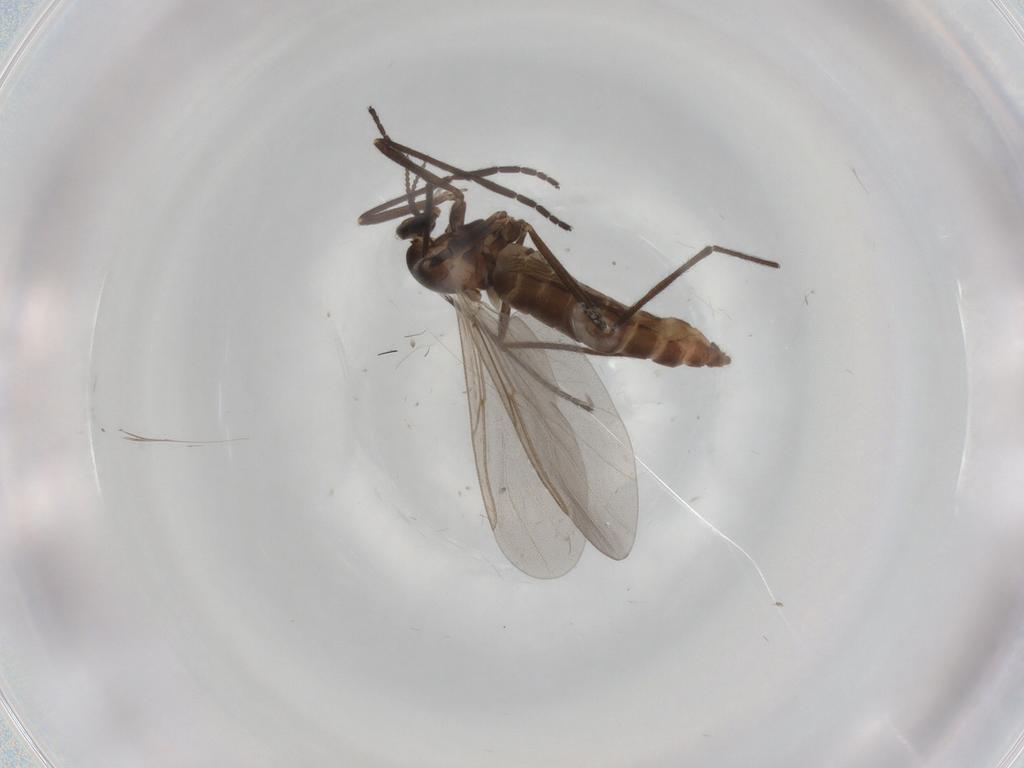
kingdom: Animalia
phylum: Arthropoda
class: Insecta
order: Diptera
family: Cecidomyiidae
